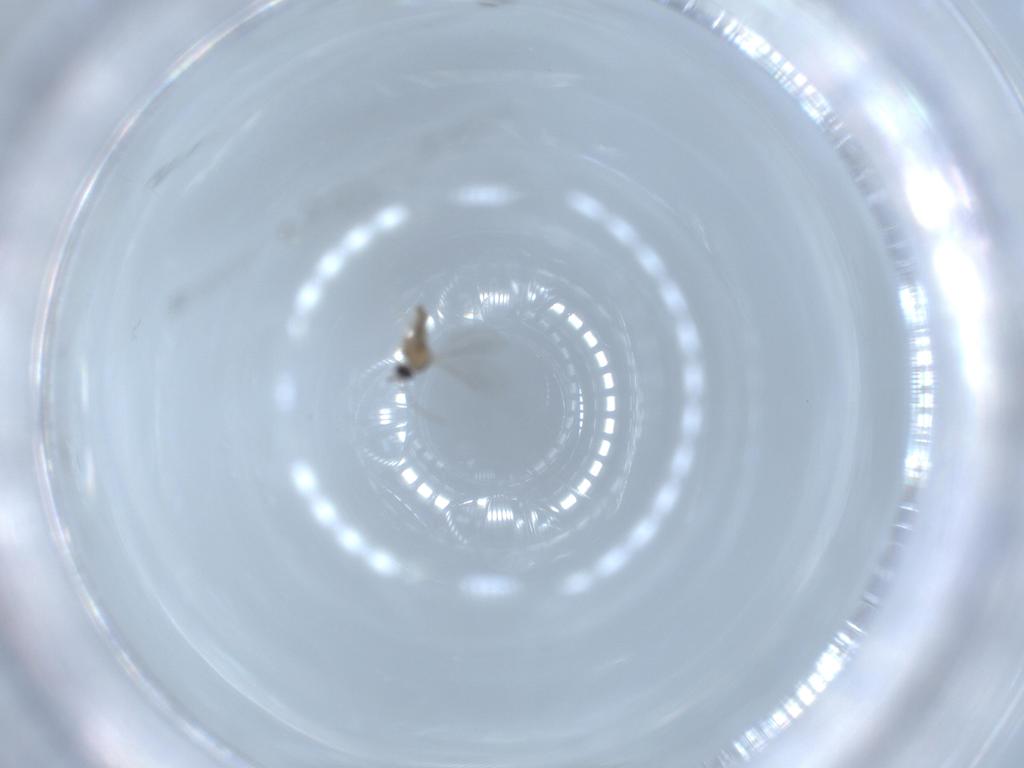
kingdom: Animalia
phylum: Arthropoda
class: Insecta
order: Diptera
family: Cecidomyiidae
